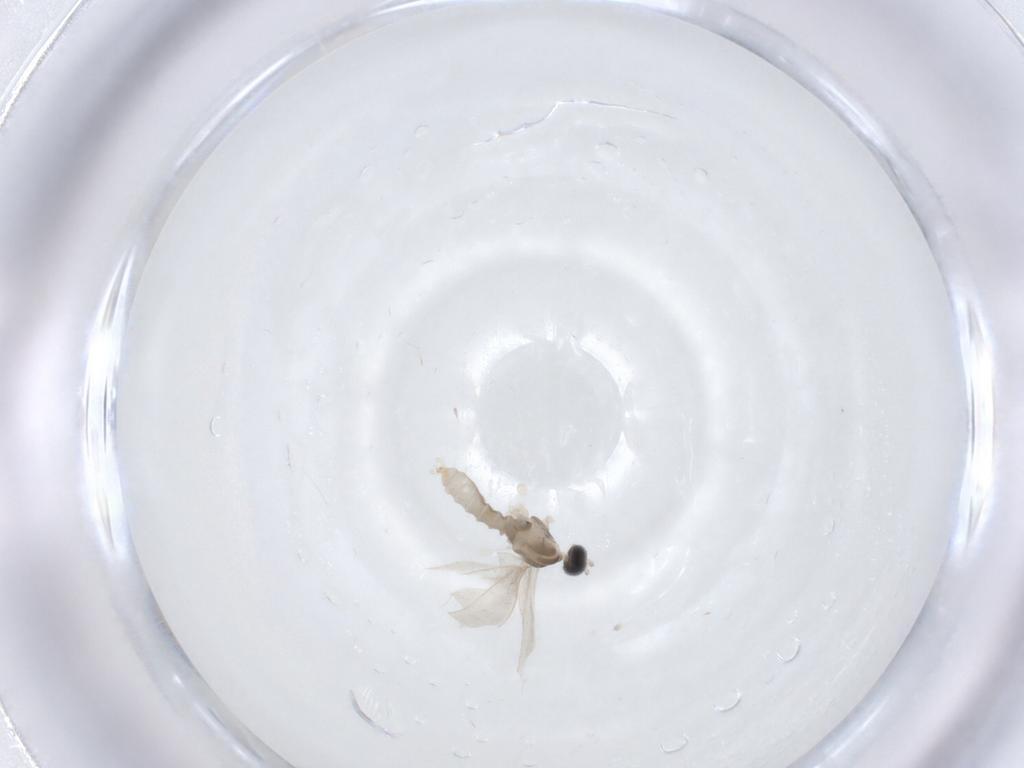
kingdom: Animalia
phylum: Arthropoda
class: Insecta
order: Diptera
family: Cecidomyiidae
